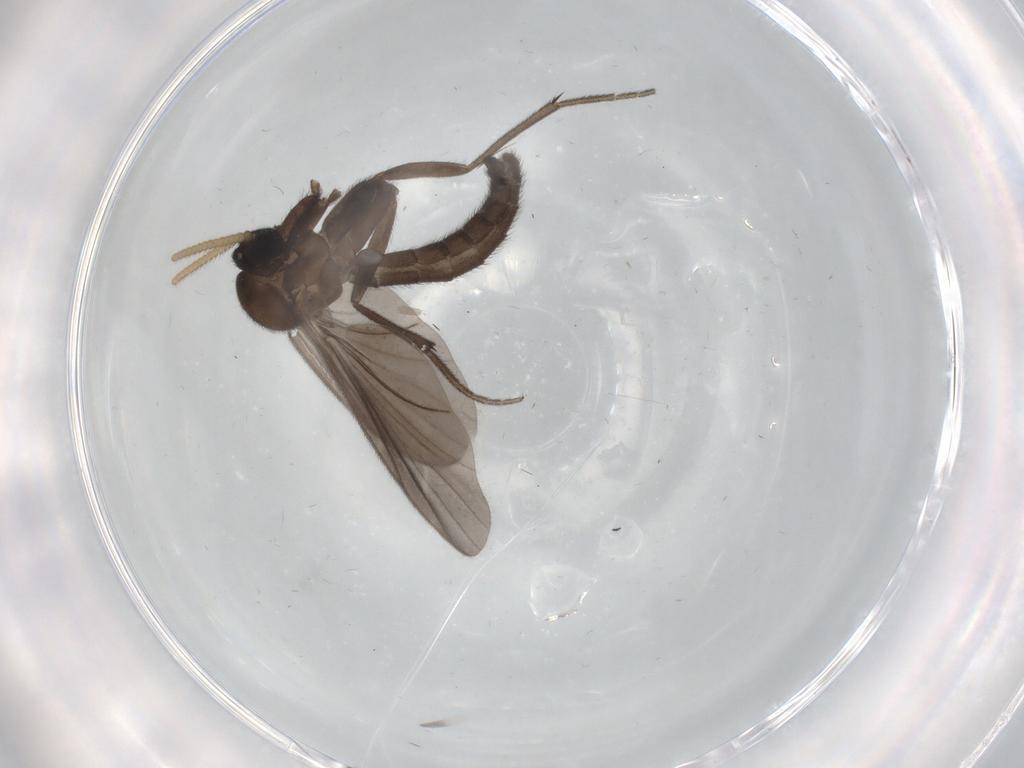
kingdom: Animalia
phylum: Arthropoda
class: Insecta
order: Diptera
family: Mycetophilidae
